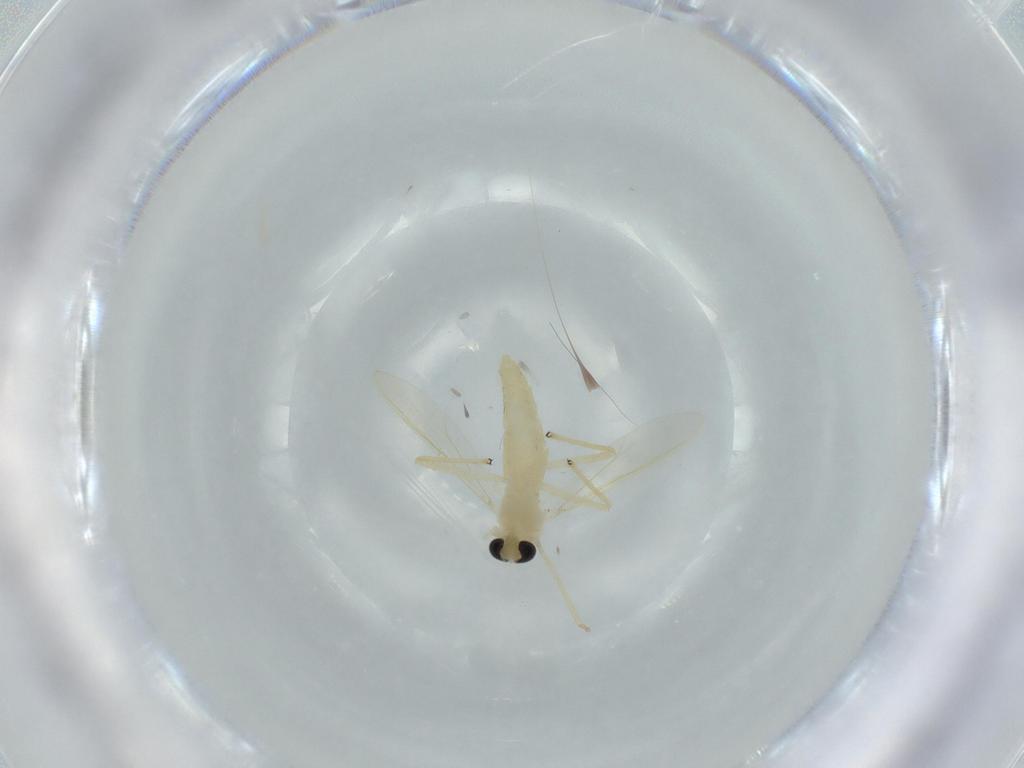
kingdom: Animalia
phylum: Arthropoda
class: Insecta
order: Diptera
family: Chironomidae
